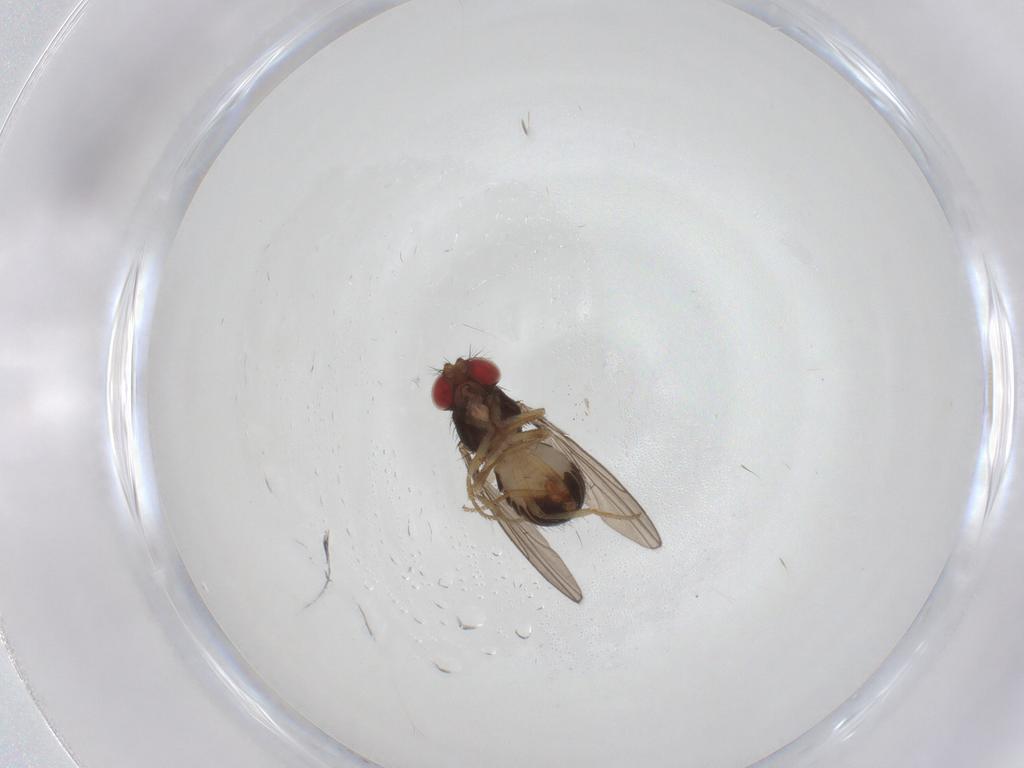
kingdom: Animalia
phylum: Arthropoda
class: Insecta
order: Diptera
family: Drosophilidae
